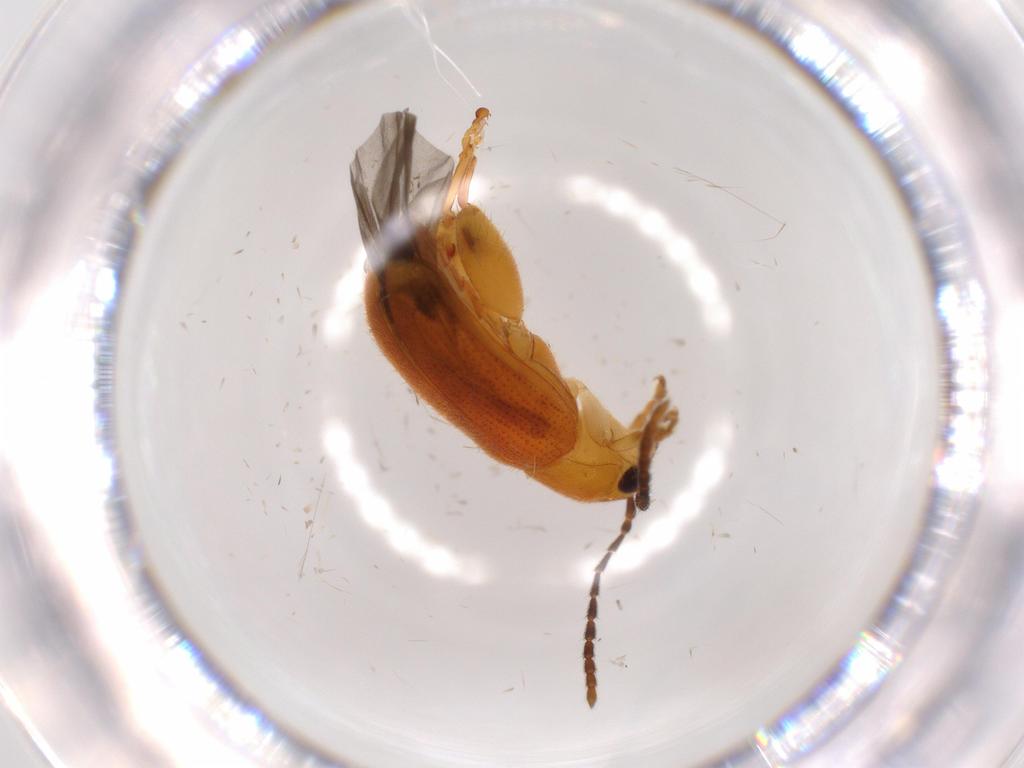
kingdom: Animalia
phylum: Arthropoda
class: Insecta
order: Coleoptera
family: Chrysomelidae
